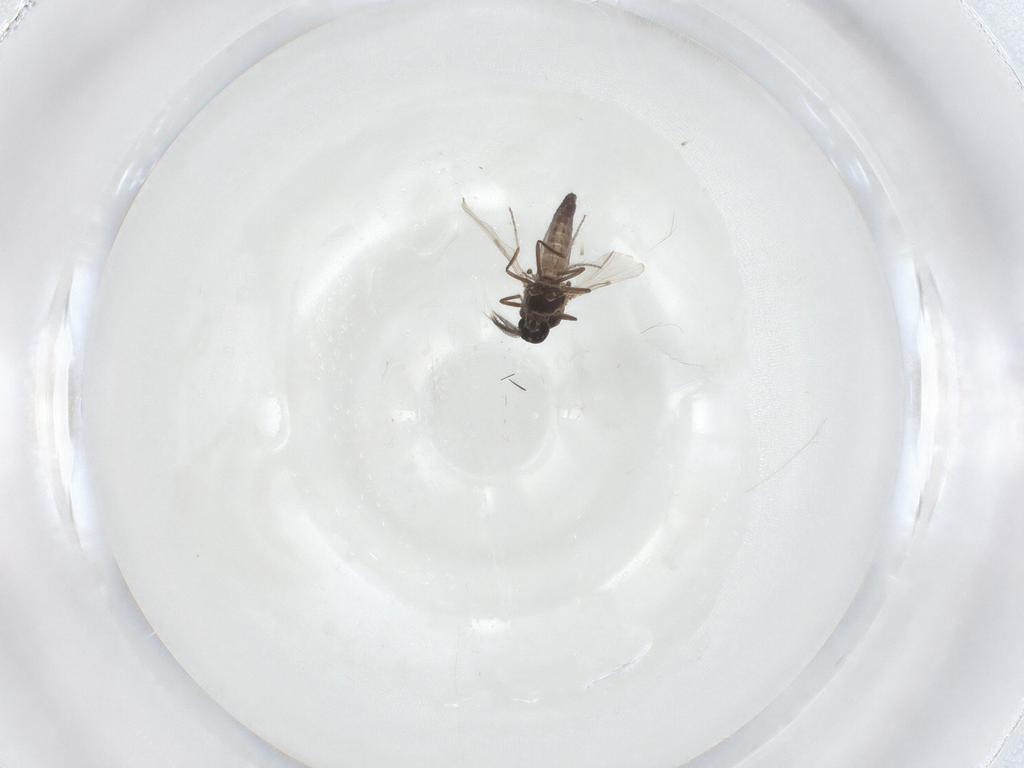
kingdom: Animalia
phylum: Arthropoda
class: Insecta
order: Diptera
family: Ceratopogonidae
